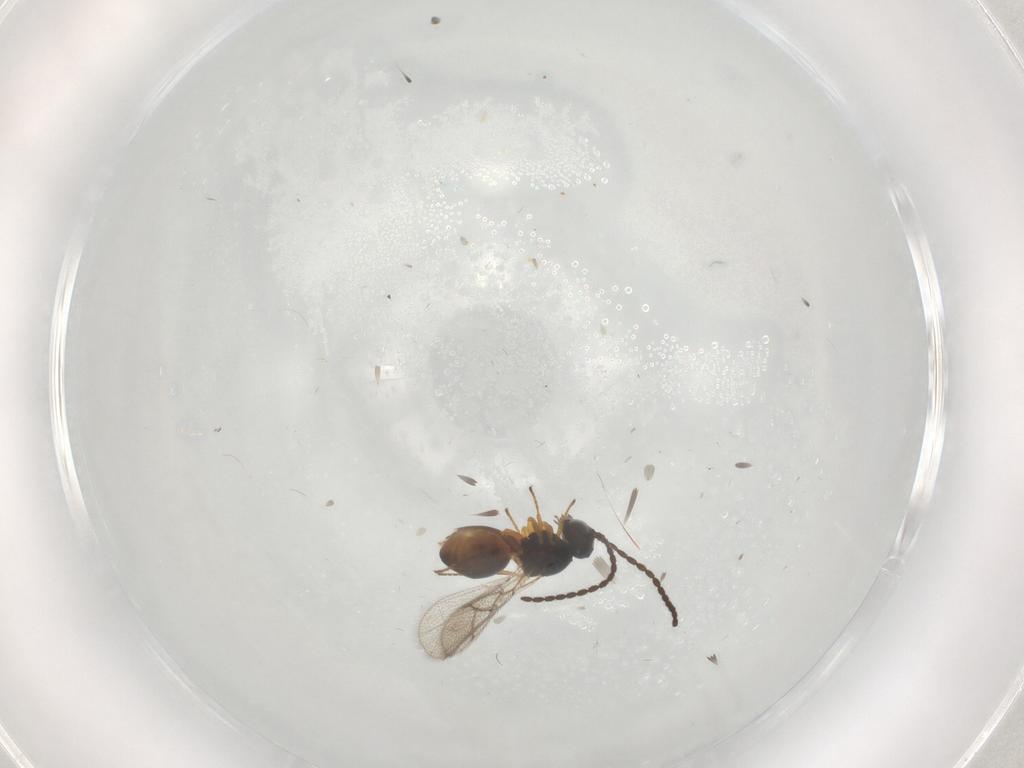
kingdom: Animalia
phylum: Arthropoda
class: Insecta
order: Hymenoptera
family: Figitidae
